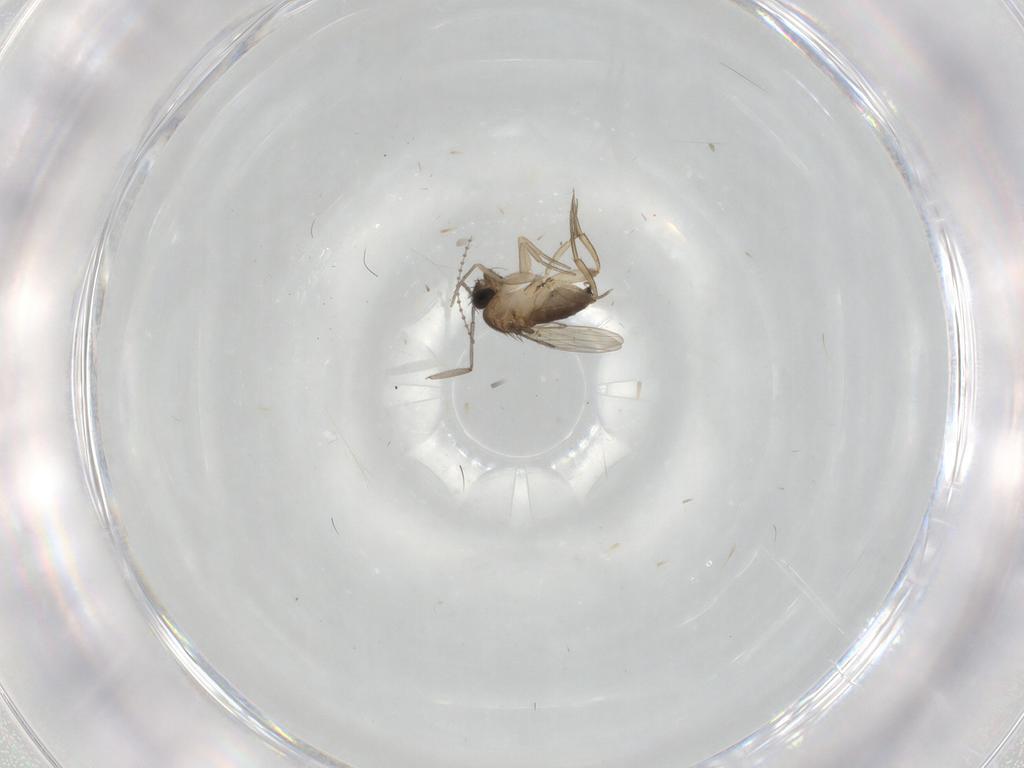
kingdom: Animalia
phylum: Arthropoda
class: Insecta
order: Diptera
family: Phoridae
